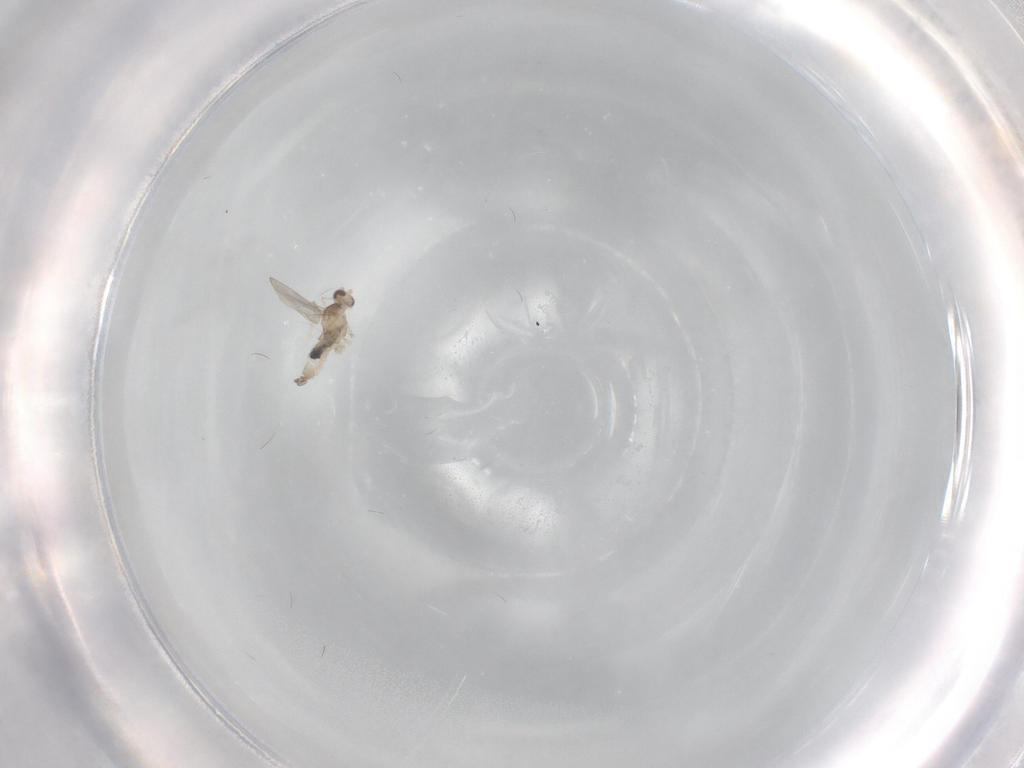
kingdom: Animalia
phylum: Arthropoda
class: Insecta
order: Diptera
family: Cecidomyiidae
